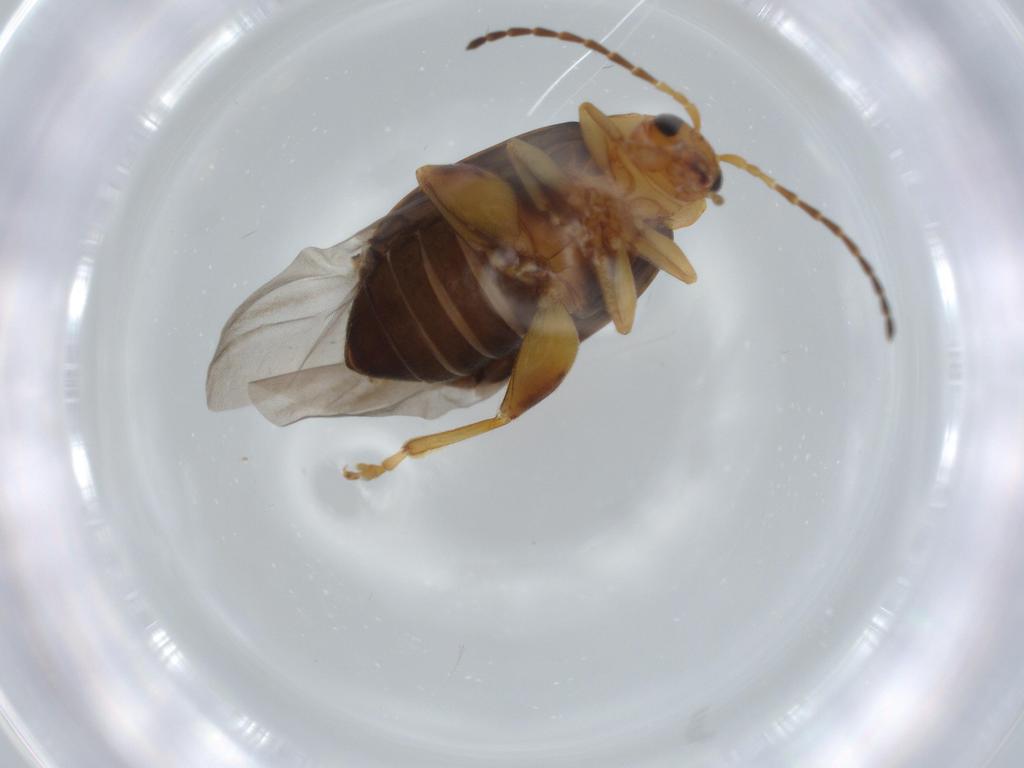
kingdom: Animalia
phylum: Arthropoda
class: Insecta
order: Coleoptera
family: Chrysomelidae
